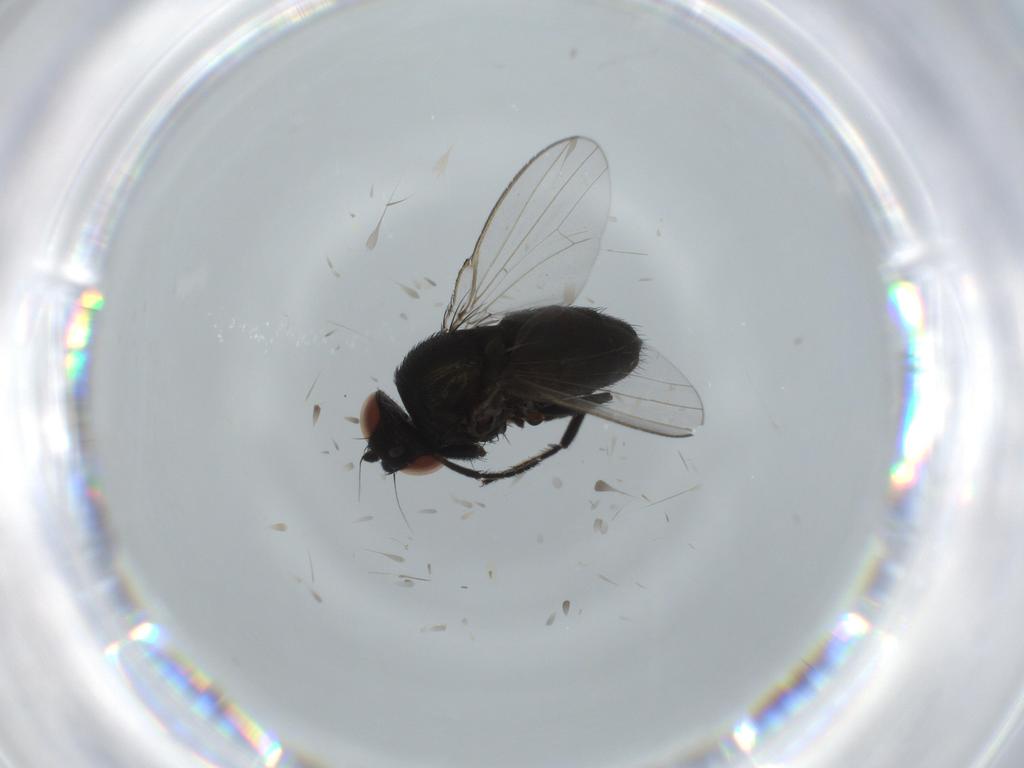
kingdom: Animalia
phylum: Arthropoda
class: Insecta
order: Diptera
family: Milichiidae
